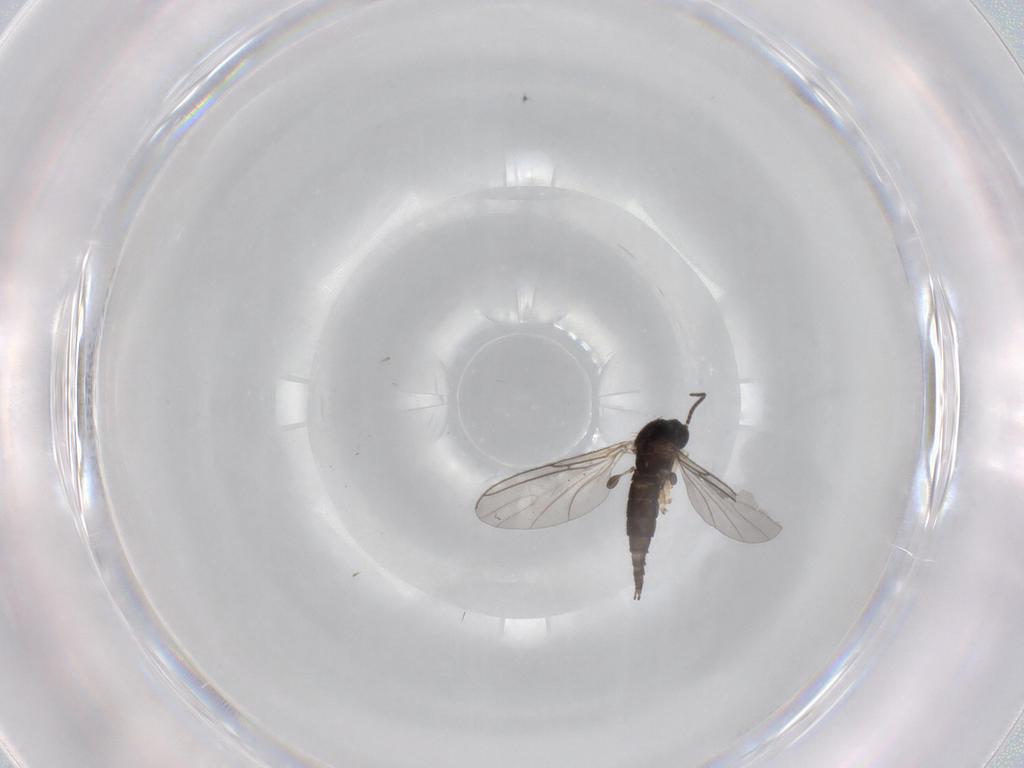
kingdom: Animalia
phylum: Arthropoda
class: Insecta
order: Diptera
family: Sciaridae
